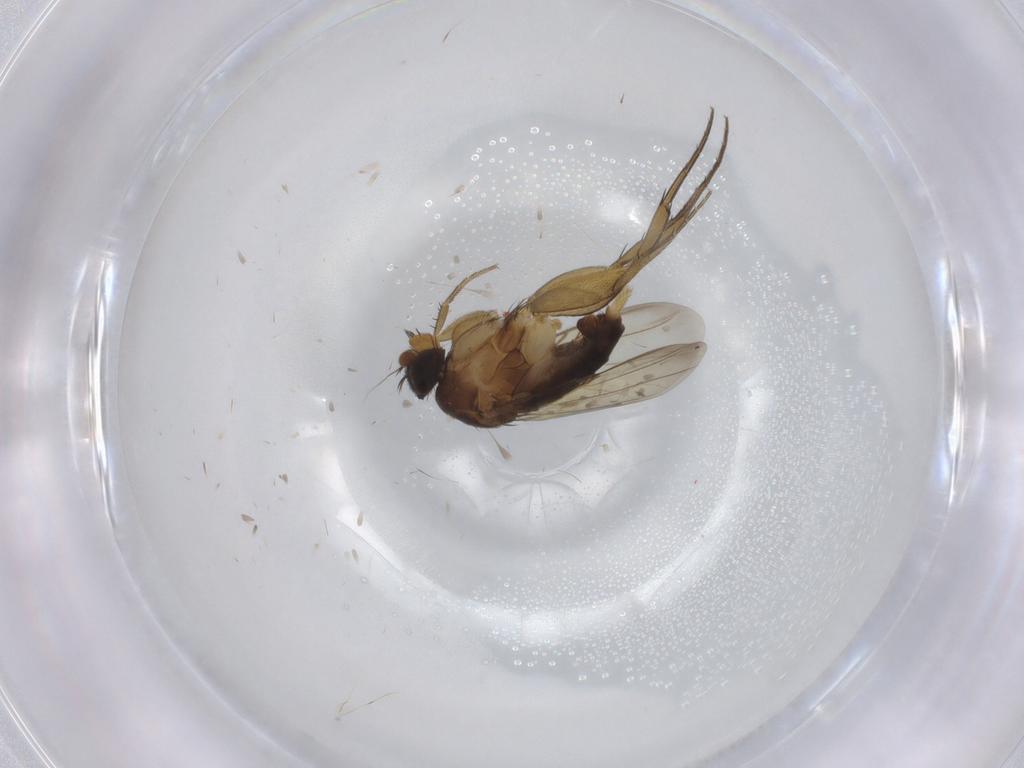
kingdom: Animalia
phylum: Arthropoda
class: Insecta
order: Diptera
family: Phoridae
